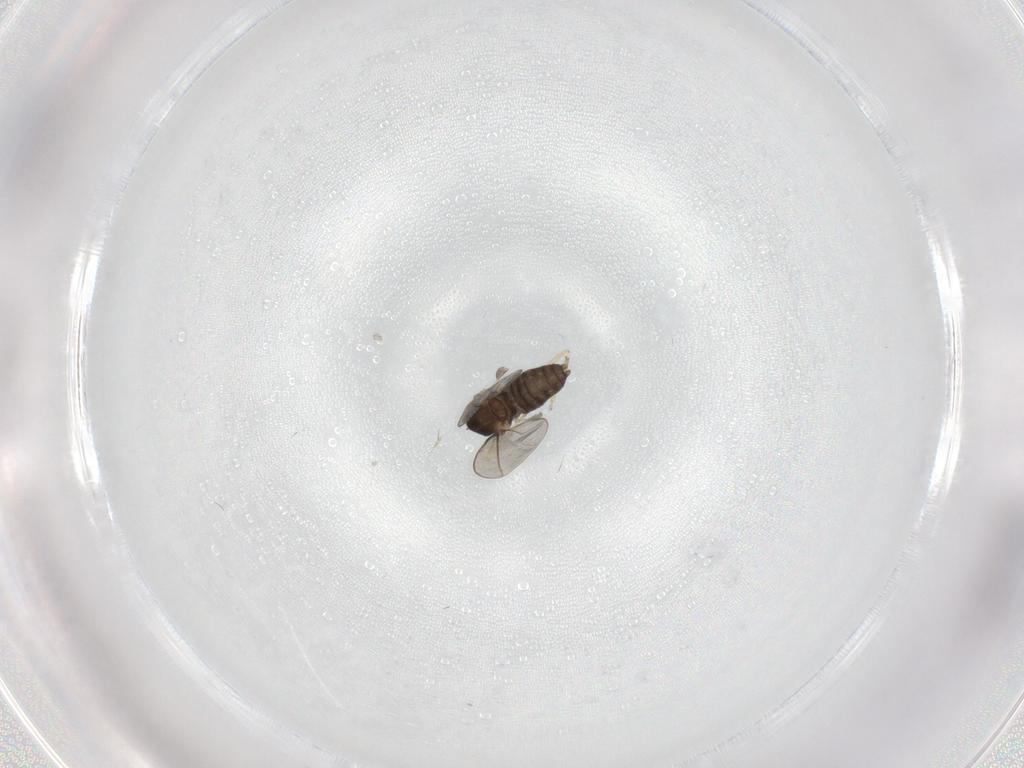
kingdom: Animalia
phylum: Arthropoda
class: Insecta
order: Diptera
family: Cecidomyiidae
